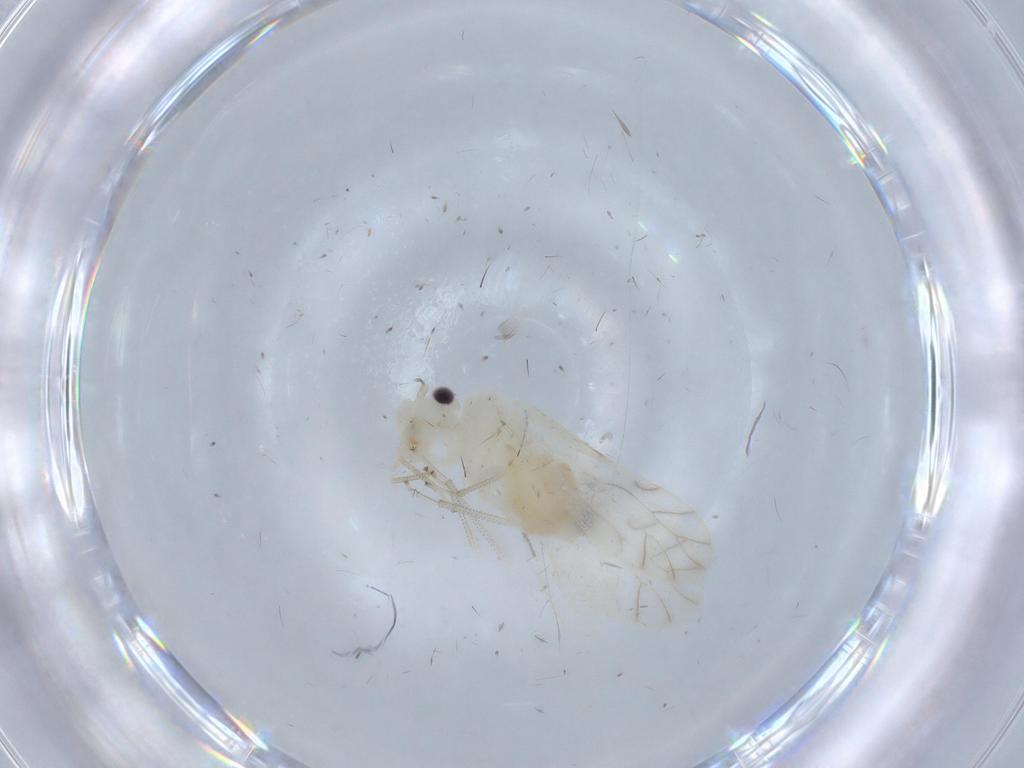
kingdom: Animalia
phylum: Arthropoda
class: Insecta
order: Psocodea
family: Caeciliusidae
